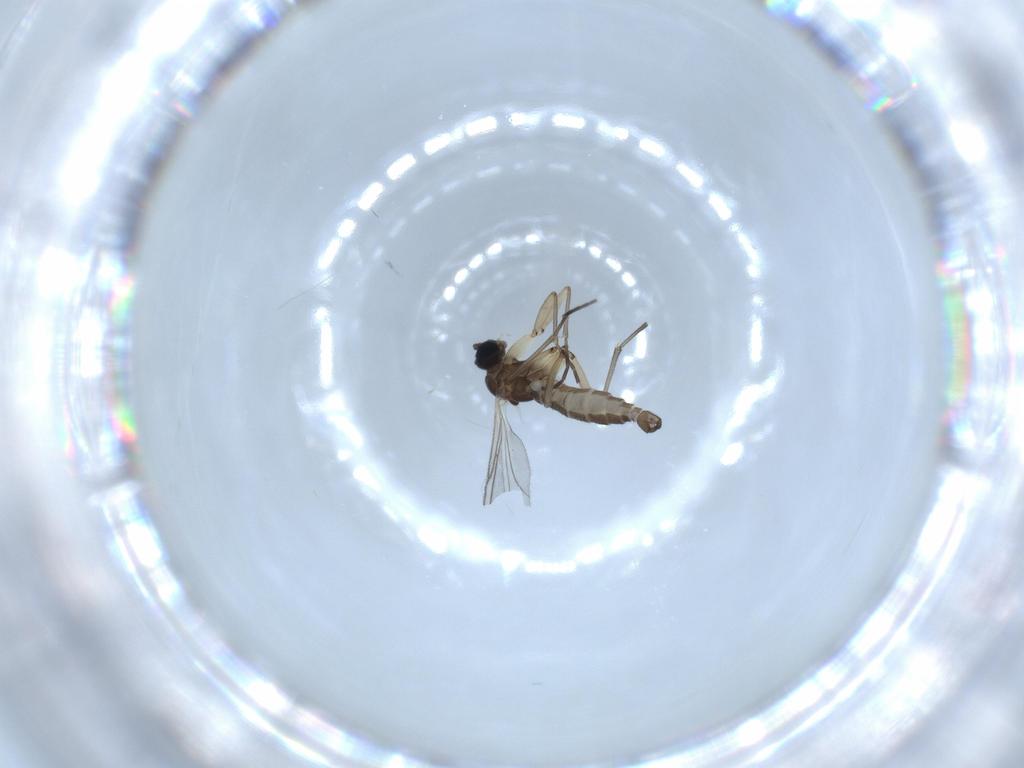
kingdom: Animalia
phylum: Arthropoda
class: Insecta
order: Diptera
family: Sciaridae
